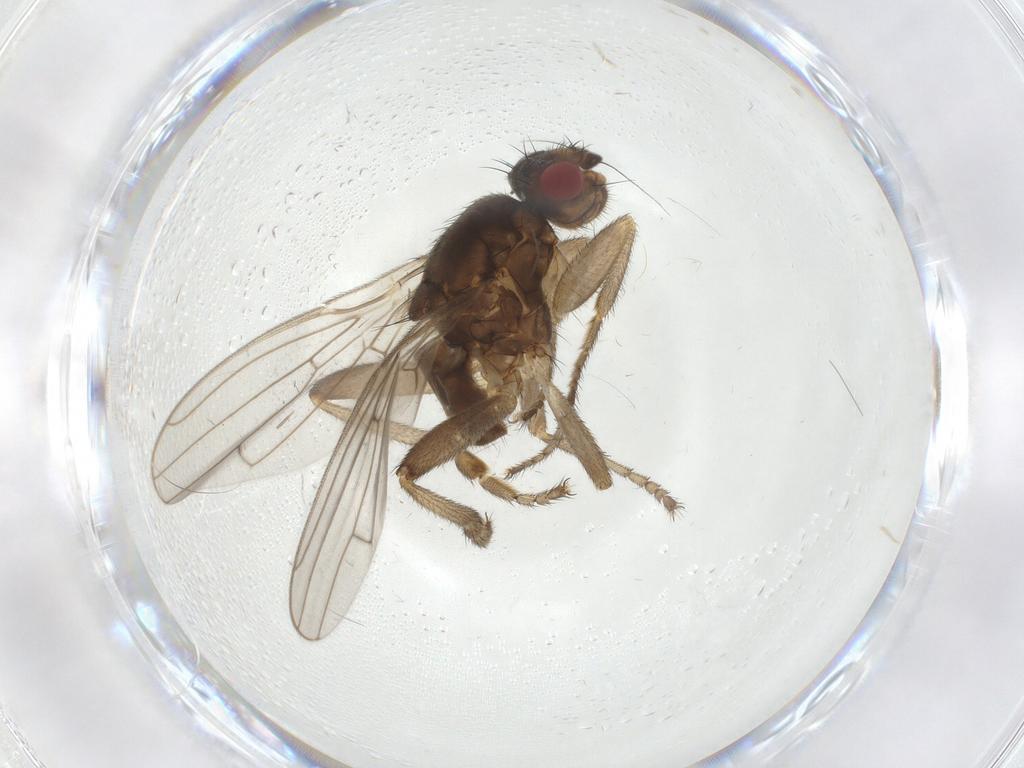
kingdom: Animalia
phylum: Arthropoda
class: Insecta
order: Diptera
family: Sphaeroceridae
